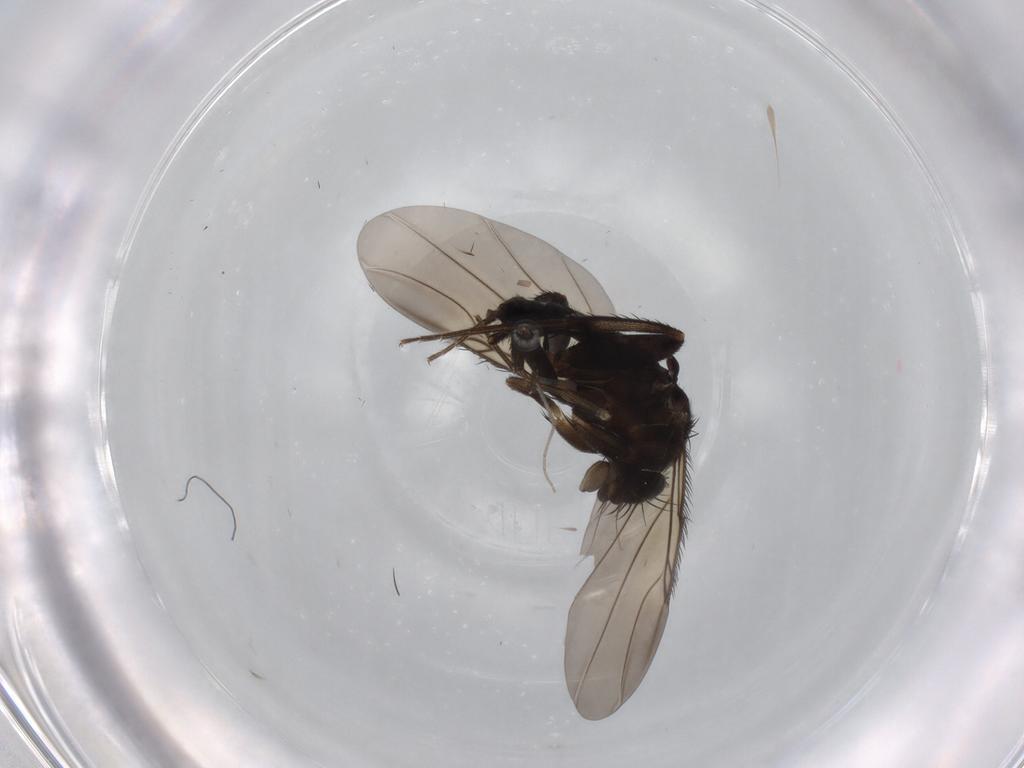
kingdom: Animalia
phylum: Arthropoda
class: Insecta
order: Diptera
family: Phoridae
